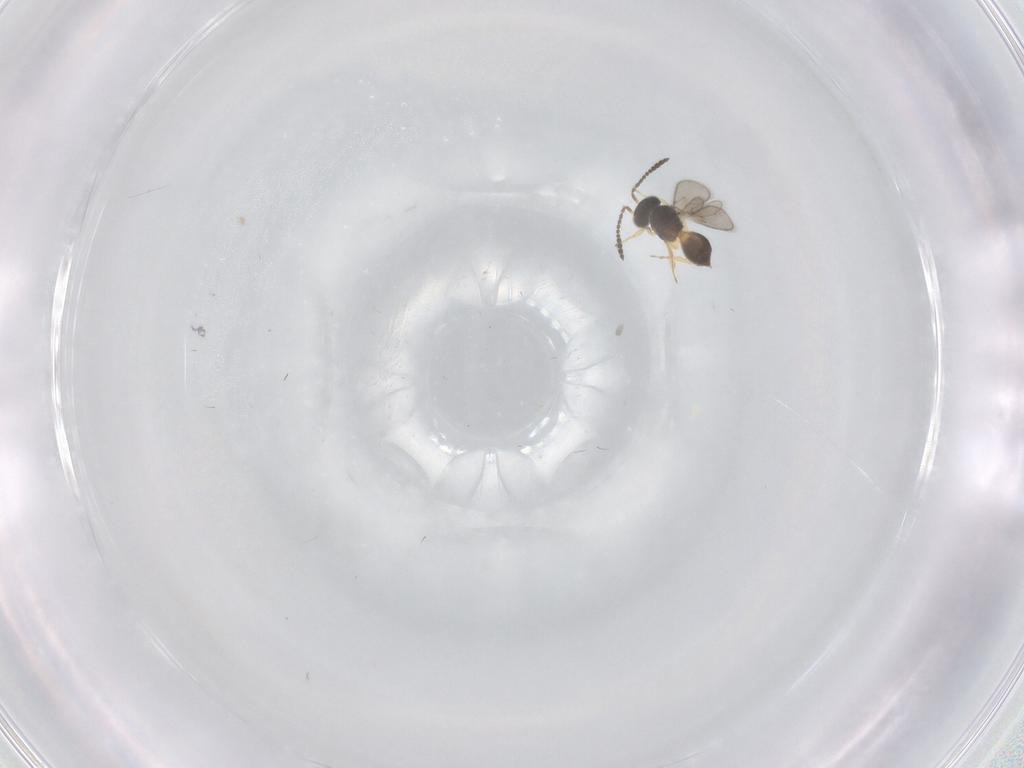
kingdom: Animalia
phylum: Arthropoda
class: Insecta
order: Hymenoptera
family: Scelionidae
